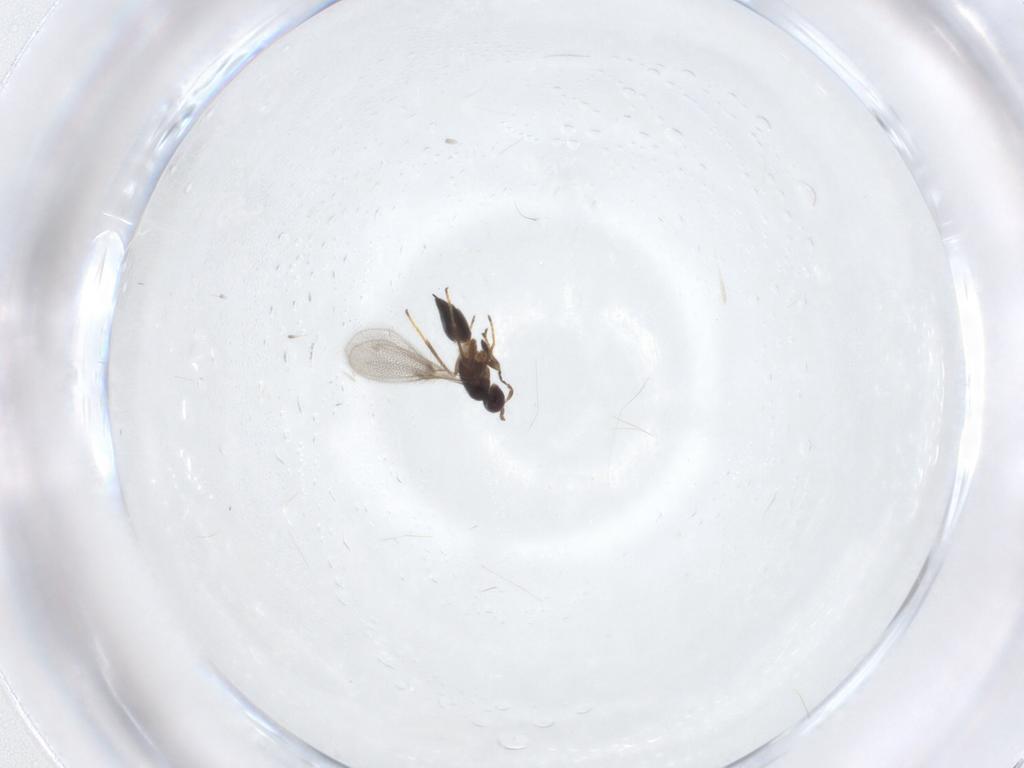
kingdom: Animalia
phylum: Arthropoda
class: Insecta
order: Hymenoptera
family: Mymaridae
